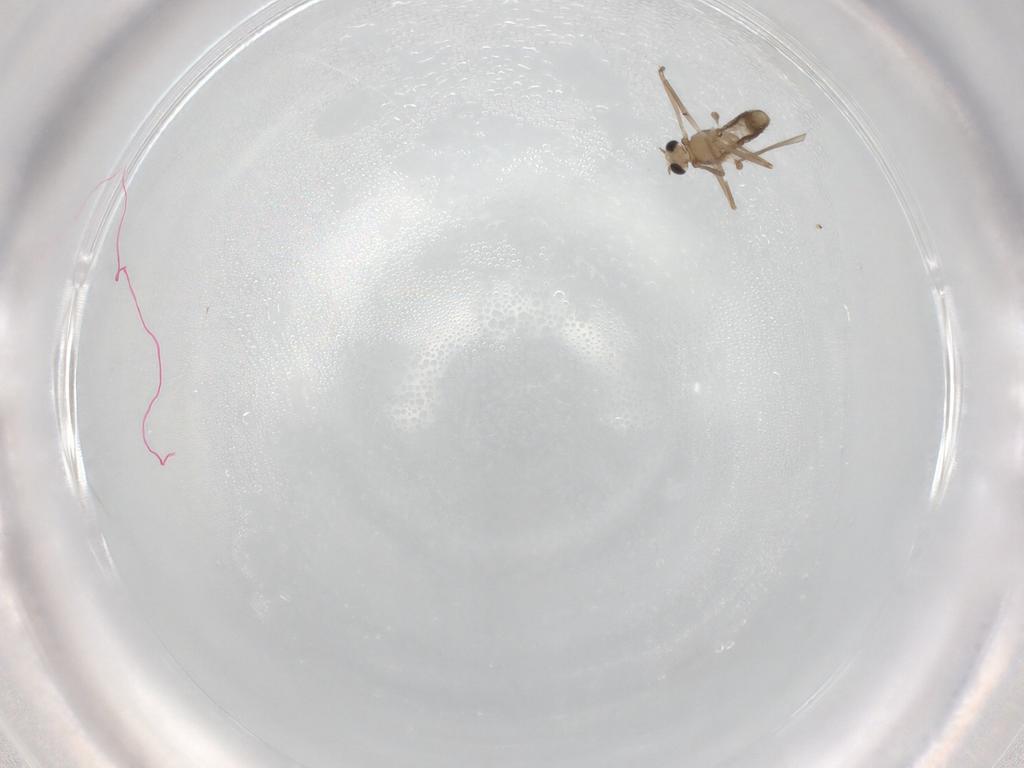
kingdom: Animalia
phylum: Arthropoda
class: Insecta
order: Diptera
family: Chironomidae
